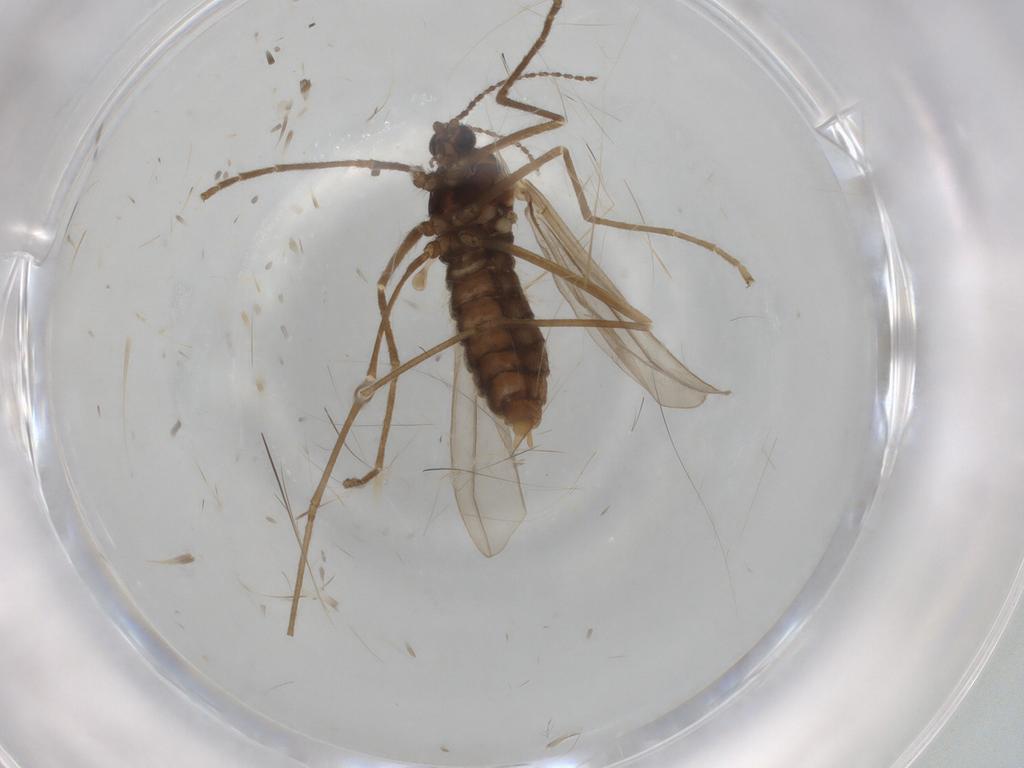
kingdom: Animalia
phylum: Arthropoda
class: Insecta
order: Diptera
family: Cecidomyiidae
